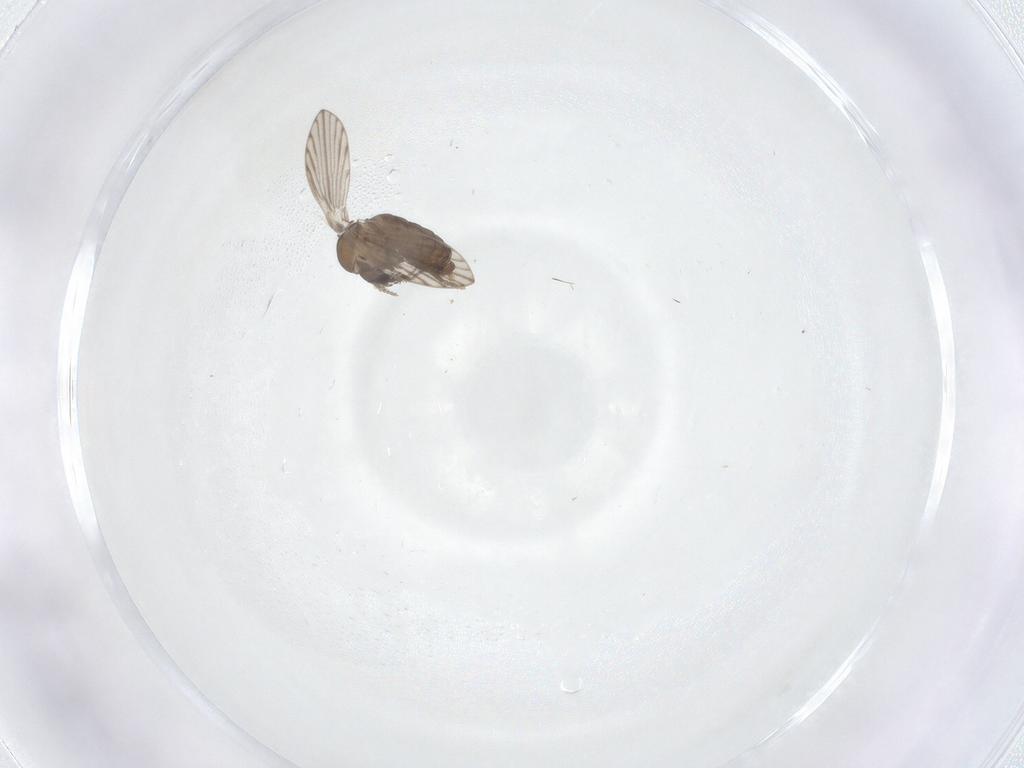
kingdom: Animalia
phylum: Arthropoda
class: Insecta
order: Diptera
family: Psychodidae
